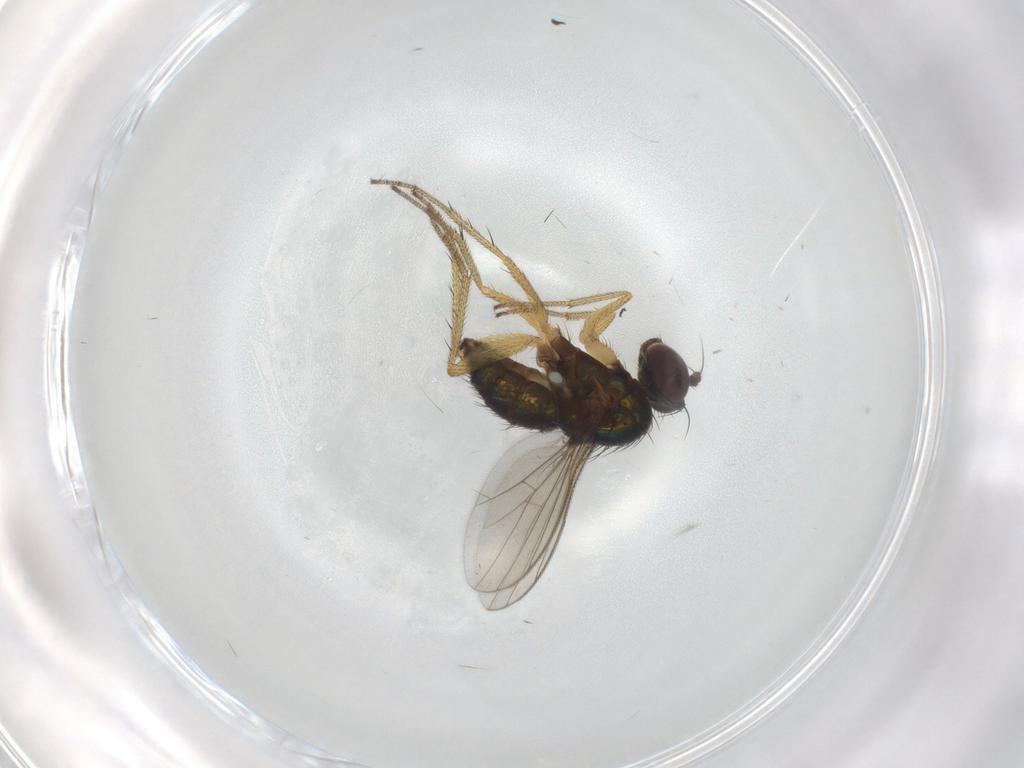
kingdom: Animalia
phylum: Arthropoda
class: Insecta
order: Diptera
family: Dolichopodidae
